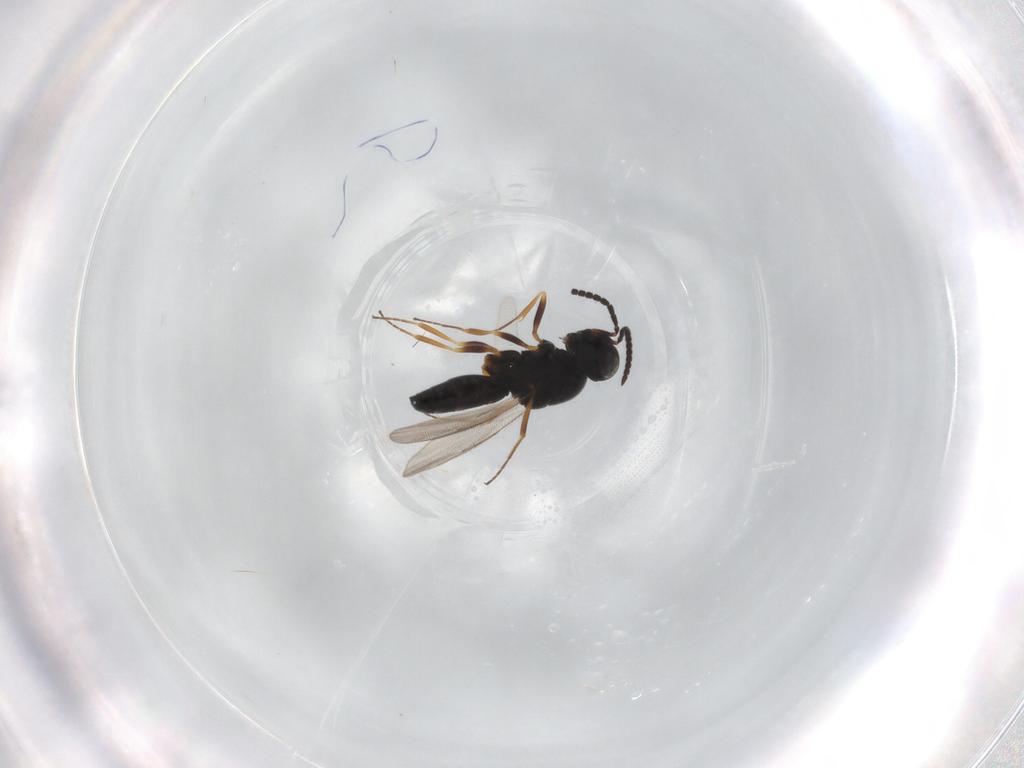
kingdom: Animalia
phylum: Arthropoda
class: Insecta
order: Hymenoptera
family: Scelionidae
